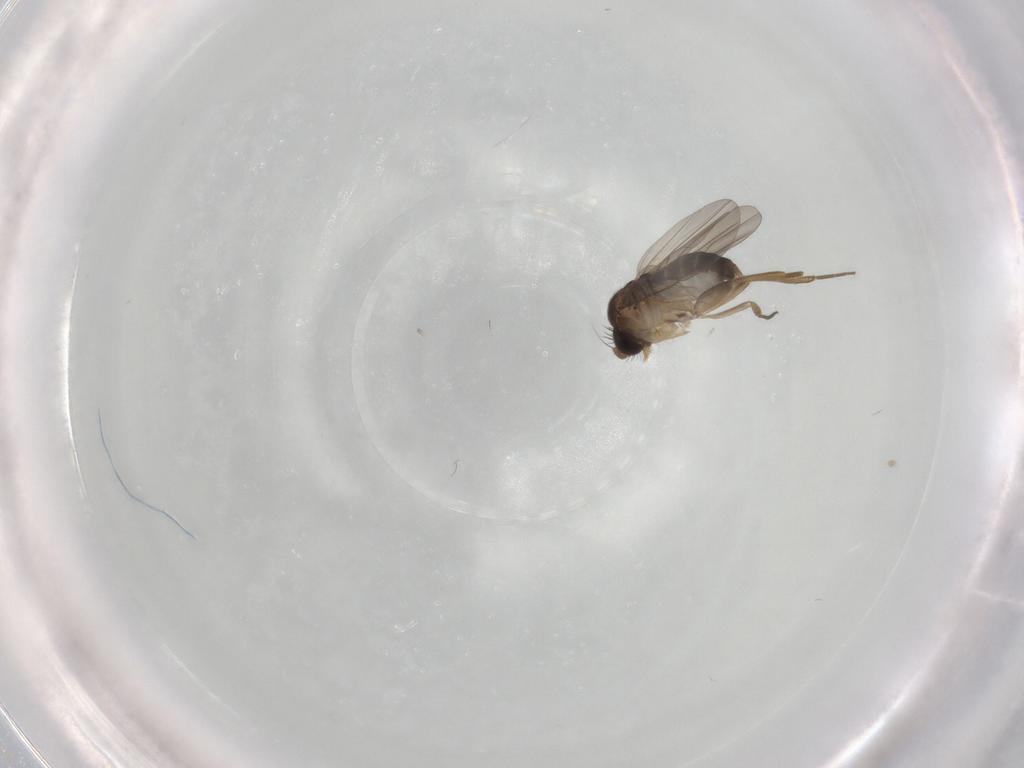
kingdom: Animalia
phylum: Arthropoda
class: Insecta
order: Diptera
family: Phoridae
